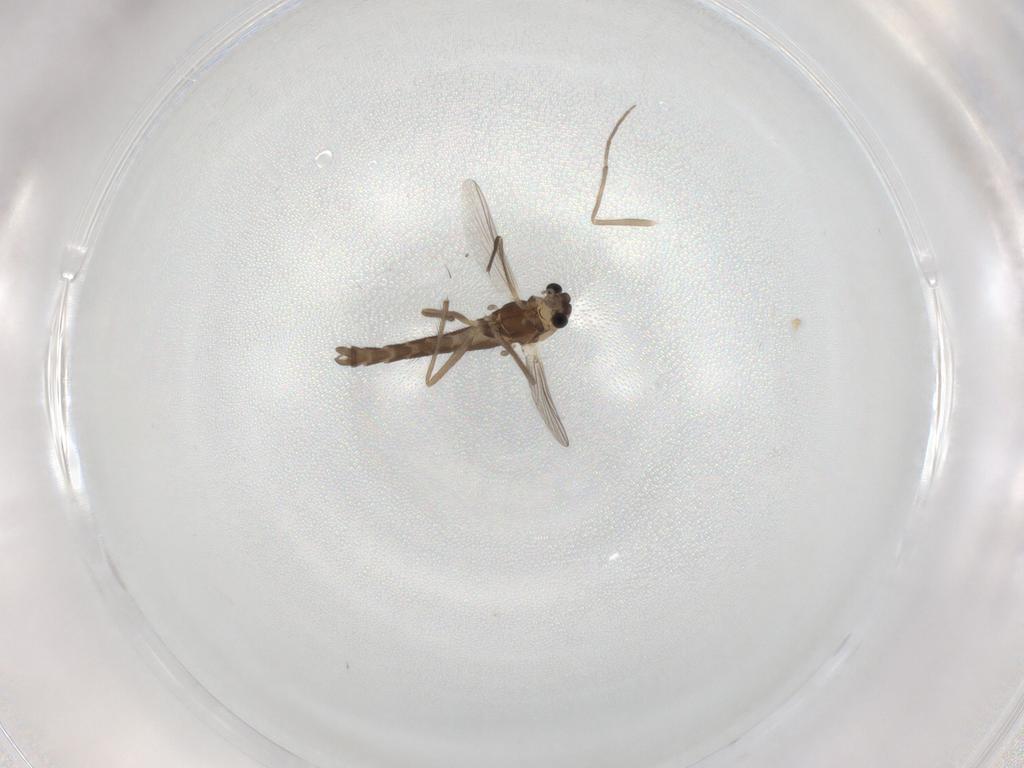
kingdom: Animalia
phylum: Arthropoda
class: Insecta
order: Diptera
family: Chironomidae
